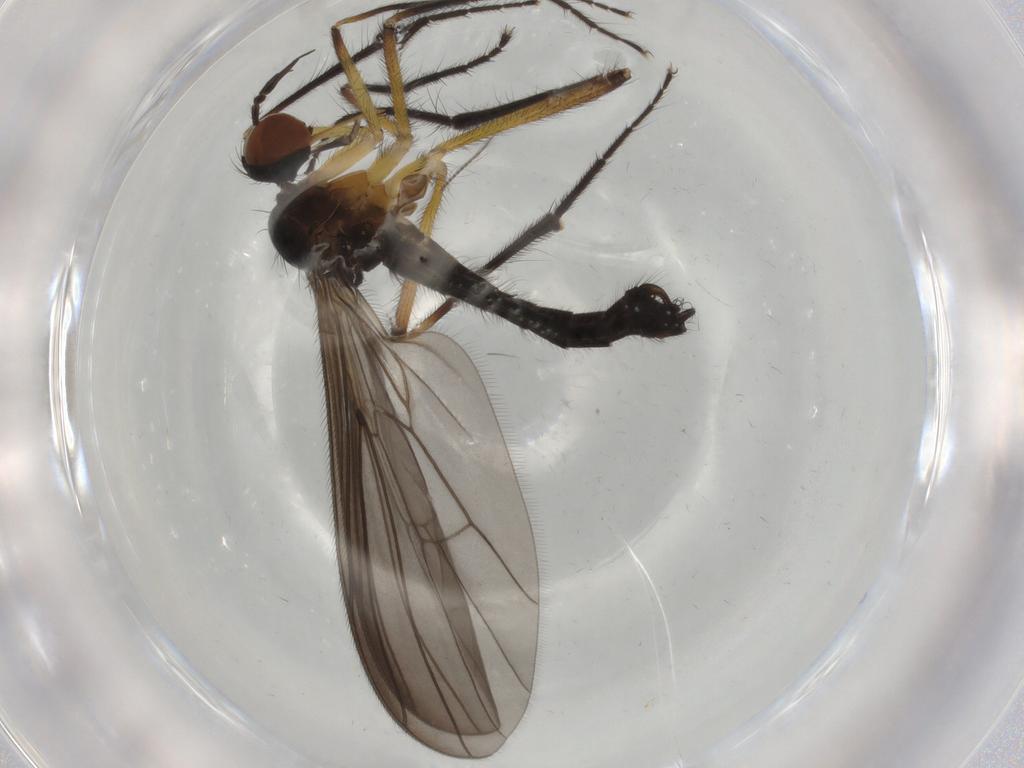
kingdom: Animalia
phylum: Arthropoda
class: Insecta
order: Diptera
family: Empididae
